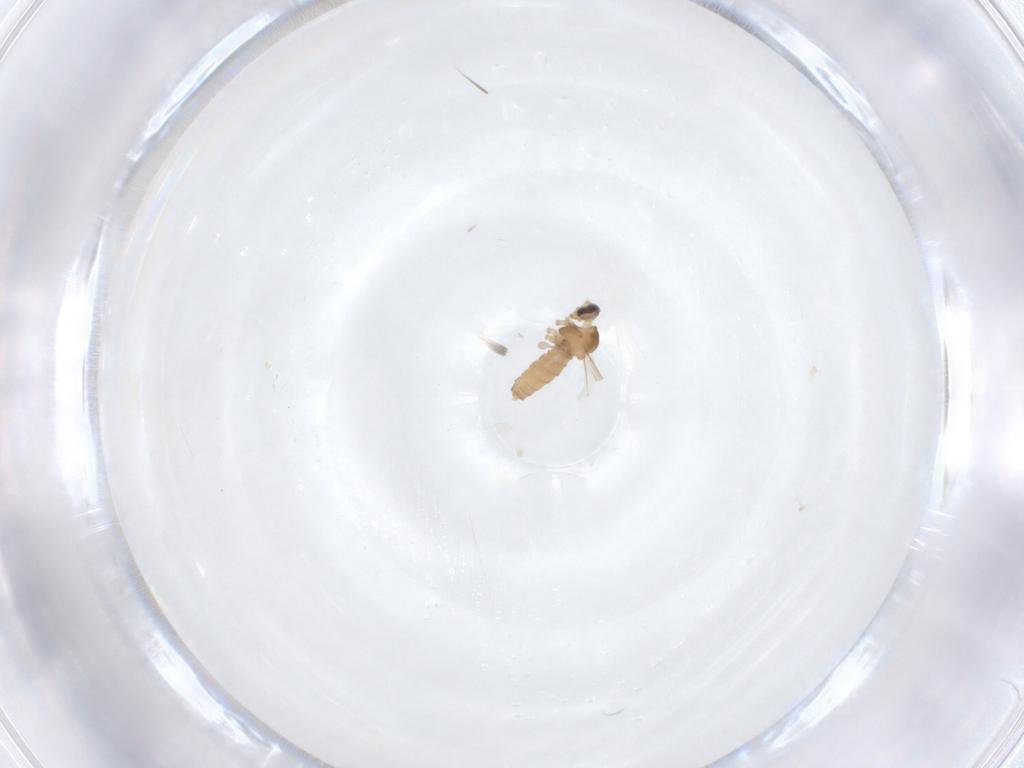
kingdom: Animalia
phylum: Arthropoda
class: Insecta
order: Diptera
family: Cecidomyiidae
